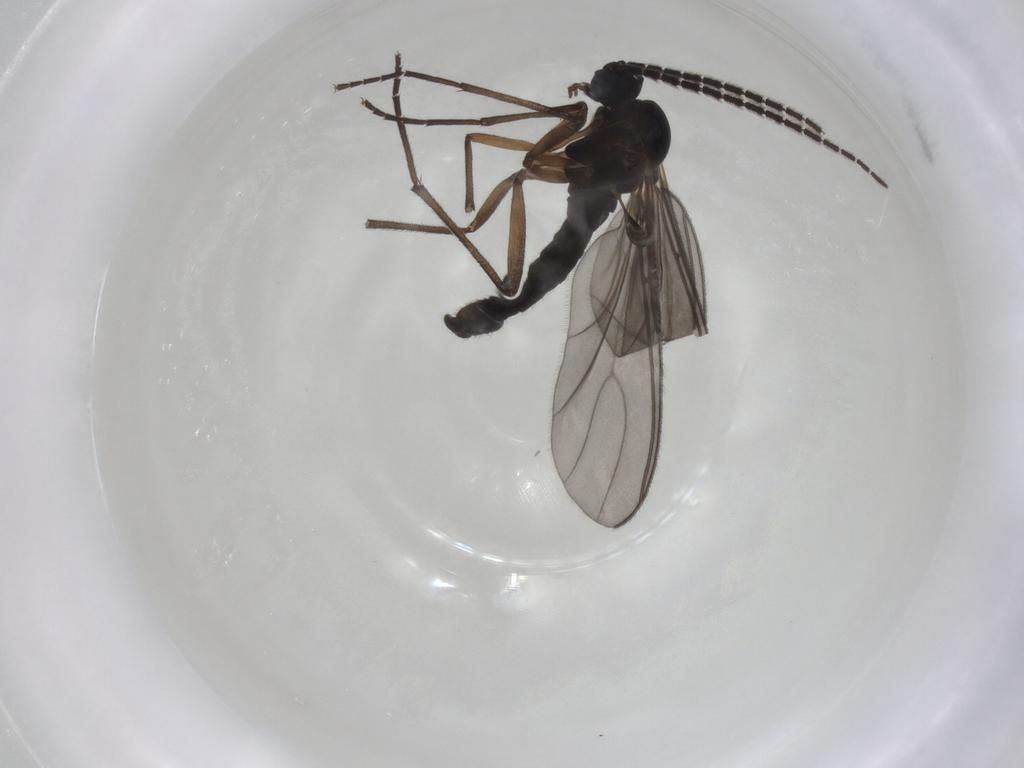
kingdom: Animalia
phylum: Arthropoda
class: Insecta
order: Diptera
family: Sciaridae
